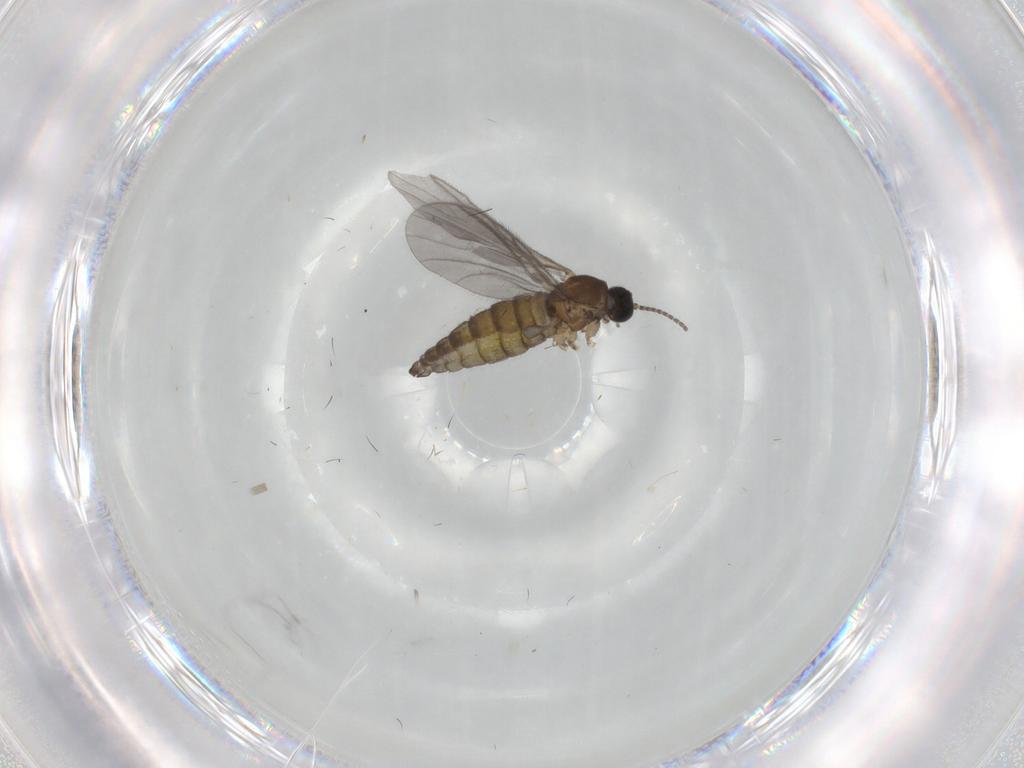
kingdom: Animalia
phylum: Arthropoda
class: Insecta
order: Diptera
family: Sciaridae
